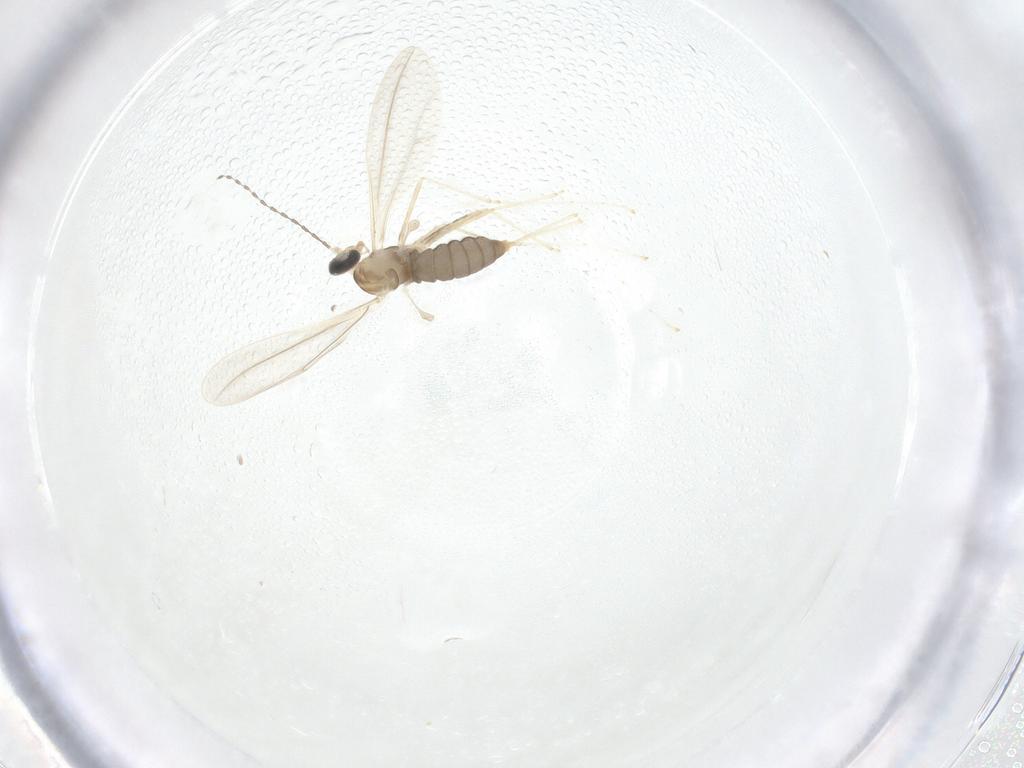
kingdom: Animalia
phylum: Arthropoda
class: Insecta
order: Diptera
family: Cecidomyiidae
